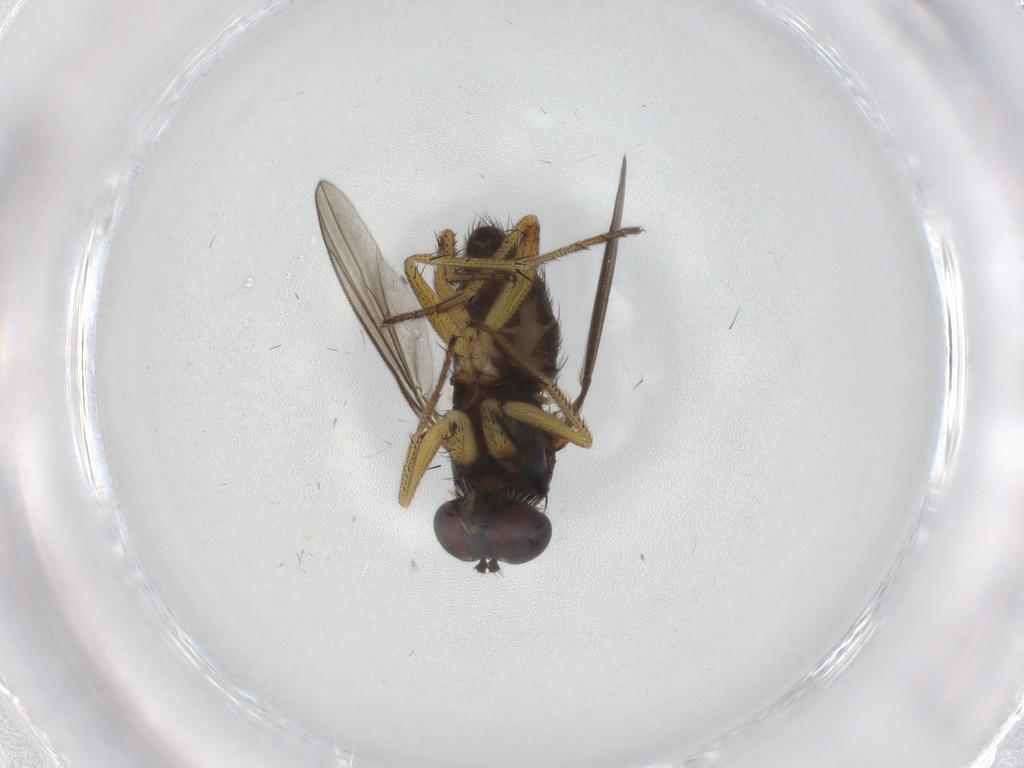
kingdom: Animalia
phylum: Arthropoda
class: Insecta
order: Diptera
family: Dolichopodidae
